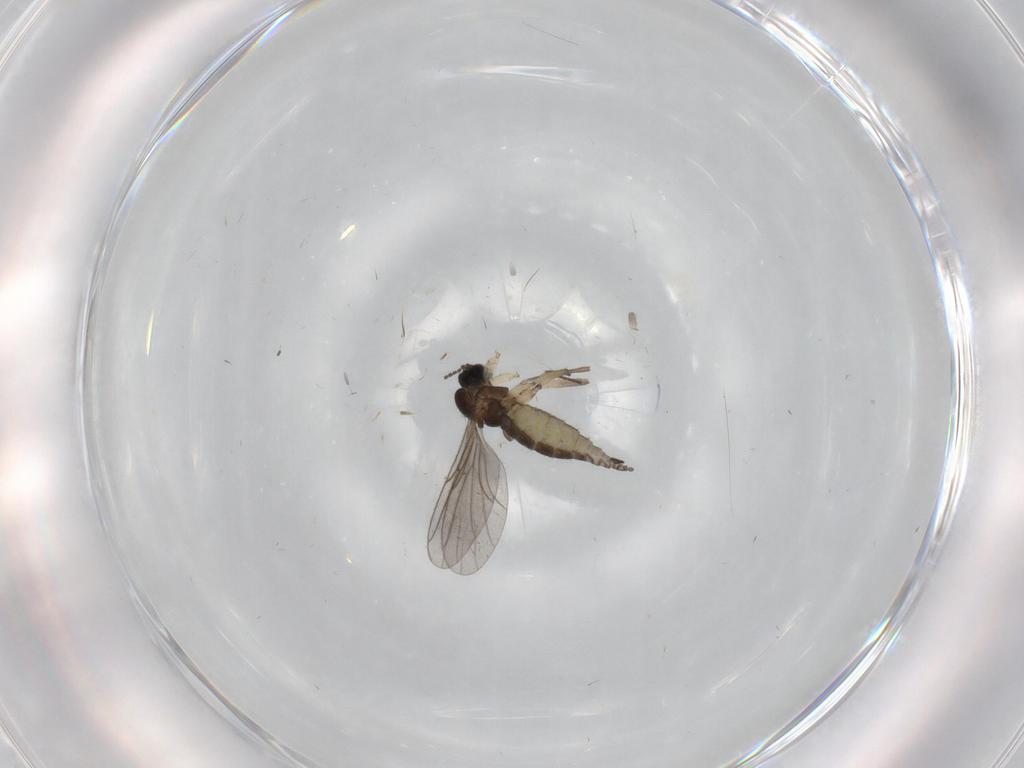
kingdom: Animalia
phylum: Arthropoda
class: Insecta
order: Diptera
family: Sciaridae
